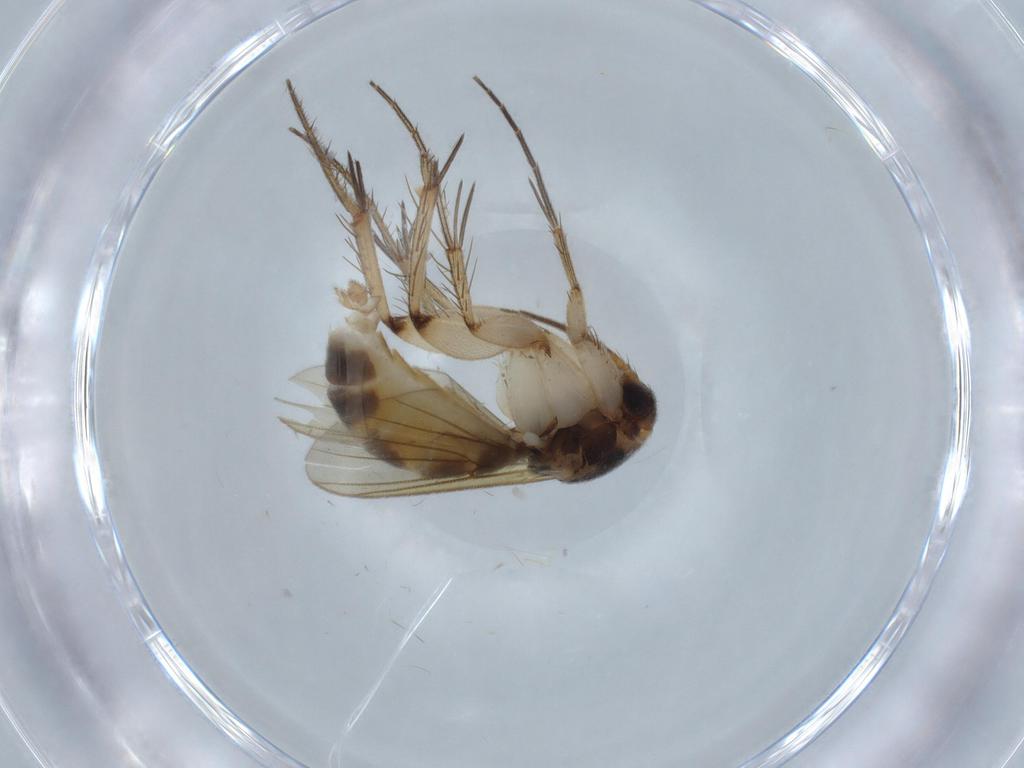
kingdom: Animalia
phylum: Arthropoda
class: Insecta
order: Diptera
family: Mycetophilidae
